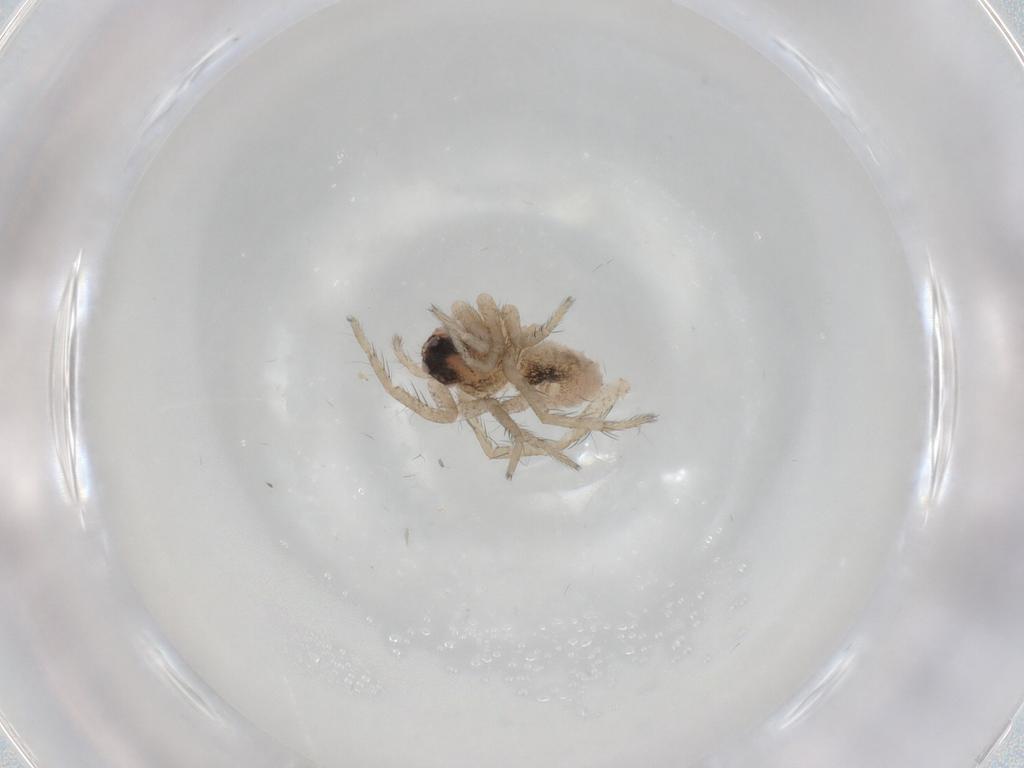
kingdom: Animalia
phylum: Arthropoda
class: Arachnida
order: Araneae
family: Lycosidae
